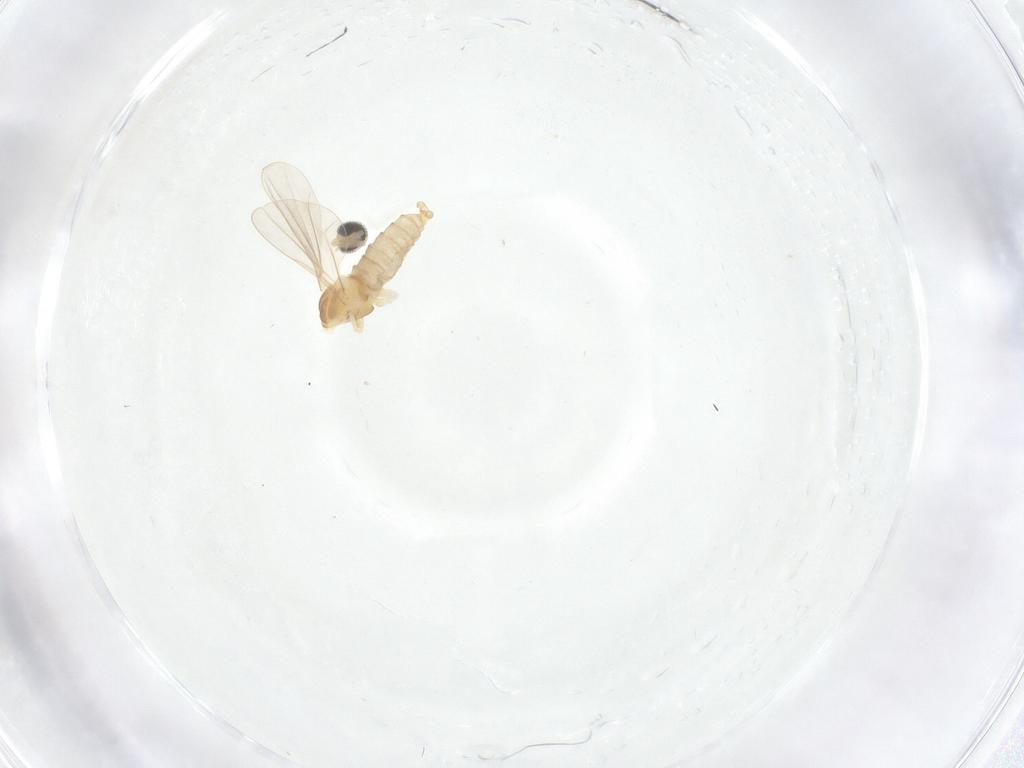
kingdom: Animalia
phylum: Arthropoda
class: Insecta
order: Diptera
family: Cecidomyiidae
